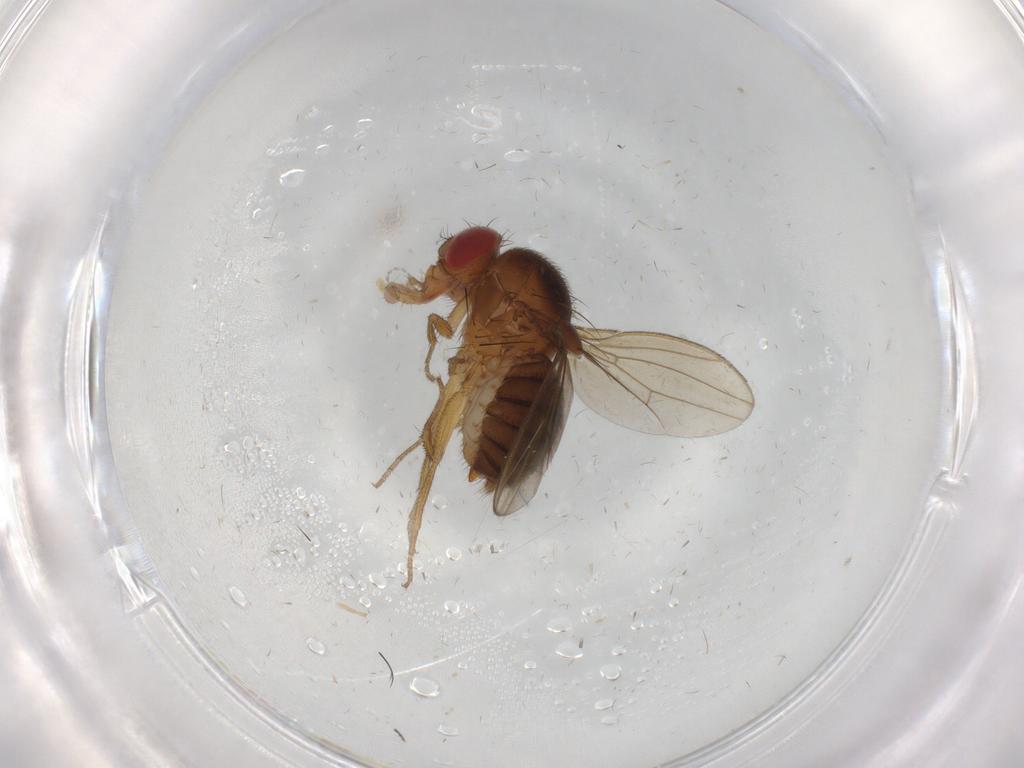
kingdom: Animalia
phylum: Arthropoda
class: Insecta
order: Diptera
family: Drosophilidae
